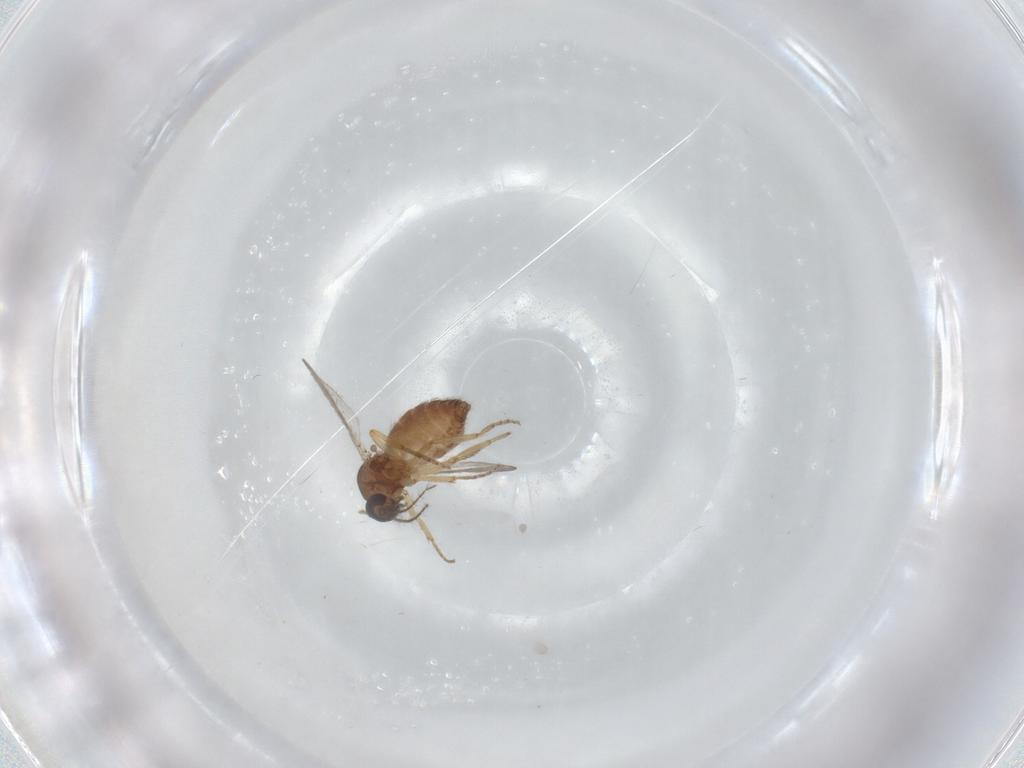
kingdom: Animalia
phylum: Arthropoda
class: Insecta
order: Diptera
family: Ceratopogonidae
